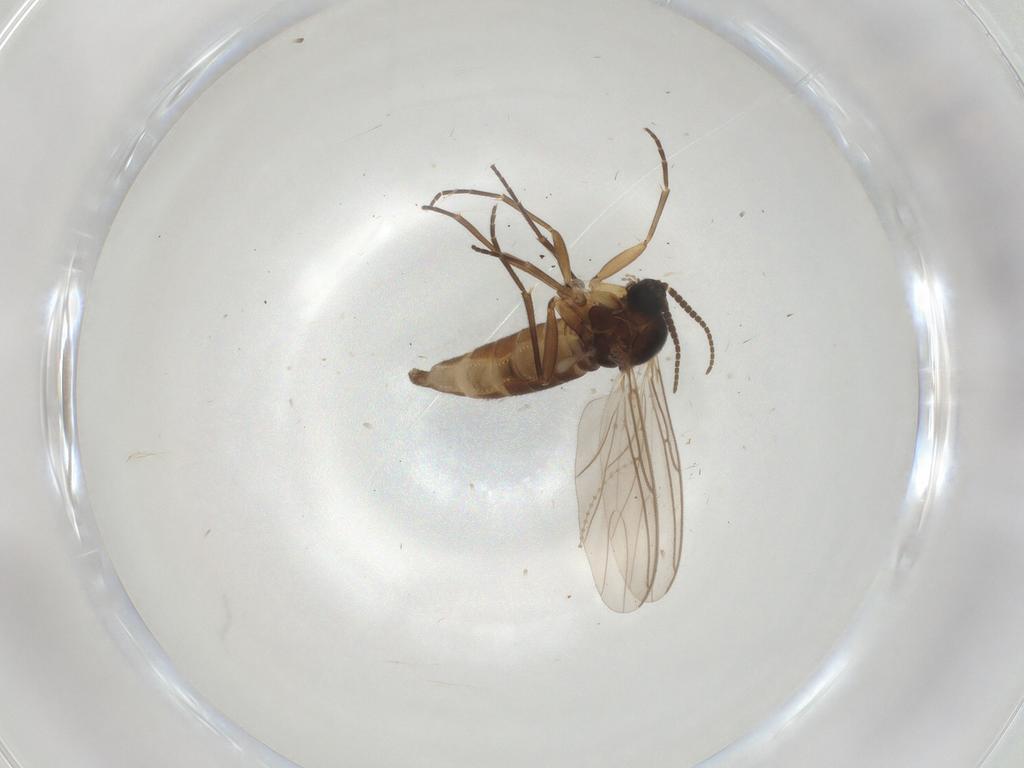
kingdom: Animalia
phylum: Arthropoda
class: Insecta
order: Diptera
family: Sciaridae
